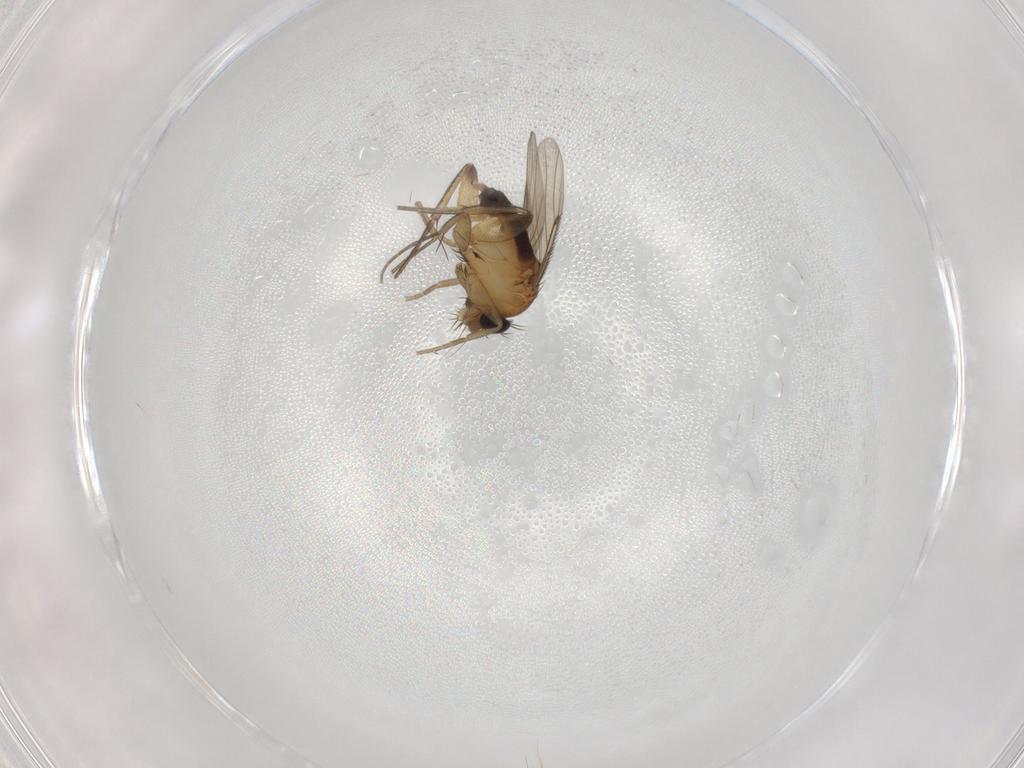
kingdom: Animalia
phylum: Arthropoda
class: Insecta
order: Diptera
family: Phoridae
